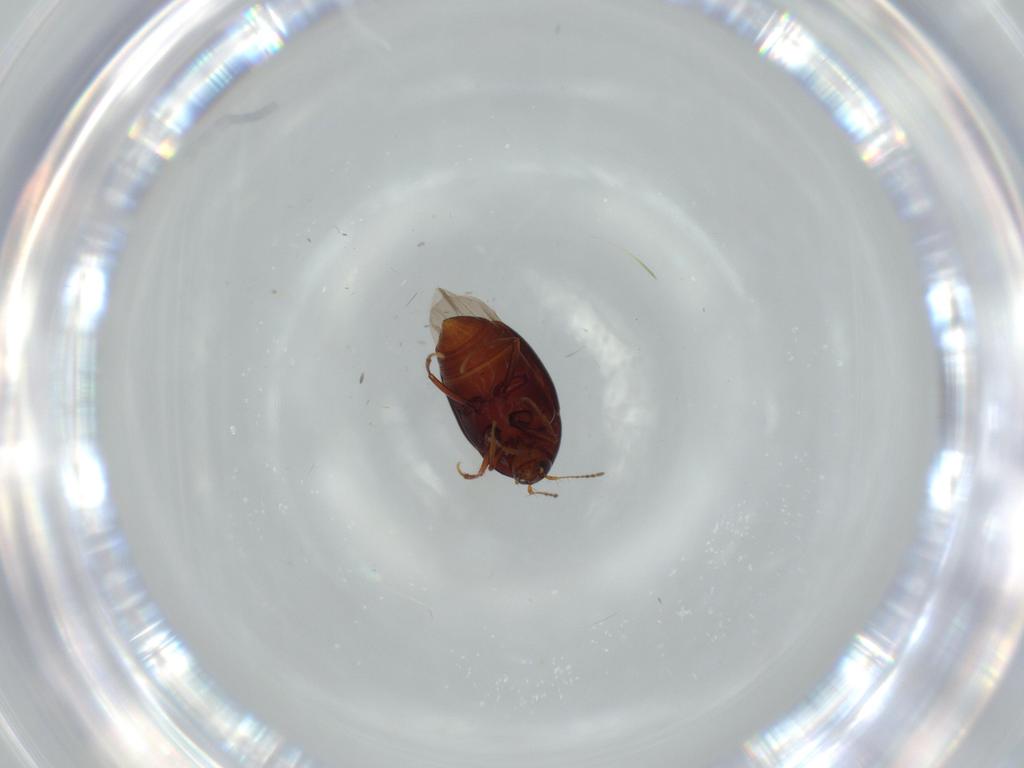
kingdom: Animalia
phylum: Arthropoda
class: Insecta
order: Coleoptera
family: Staphylinidae
